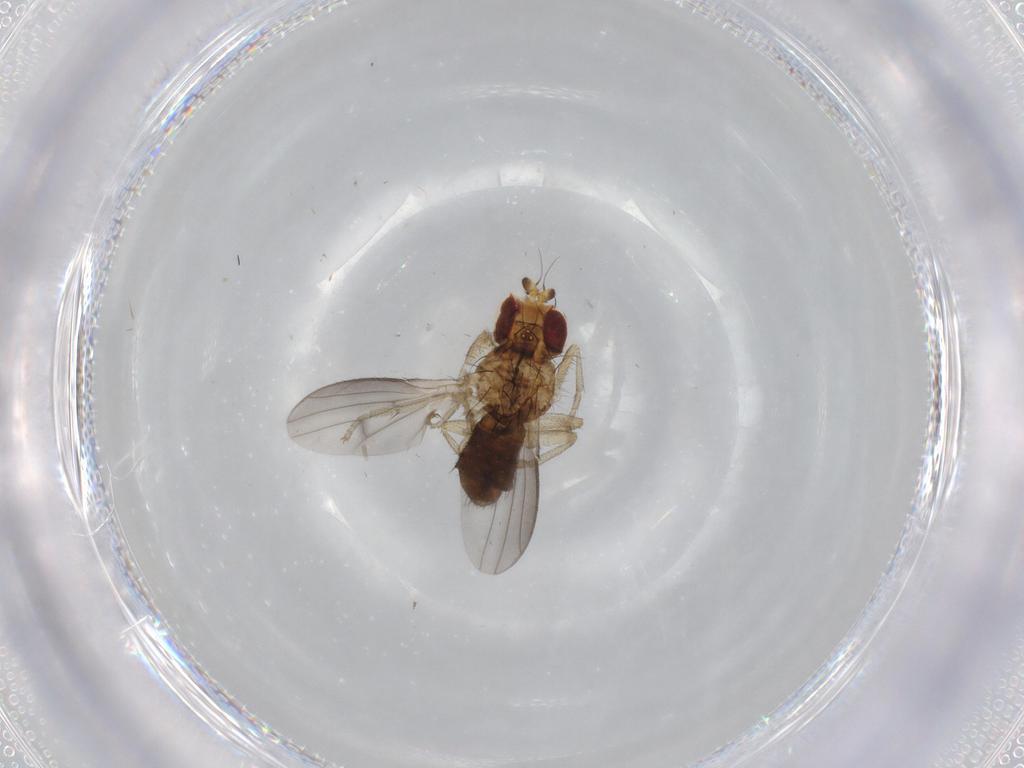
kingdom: Animalia
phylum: Arthropoda
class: Insecta
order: Diptera
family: Heleomyzidae
